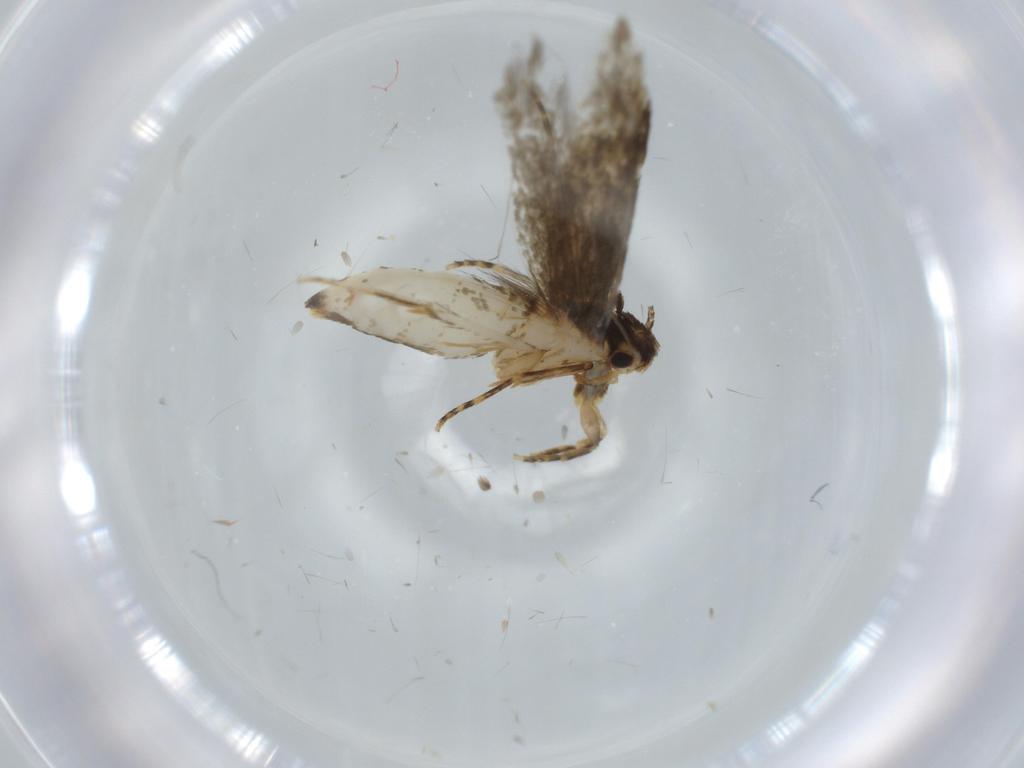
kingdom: Animalia
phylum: Arthropoda
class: Insecta
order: Lepidoptera
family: Tineidae
